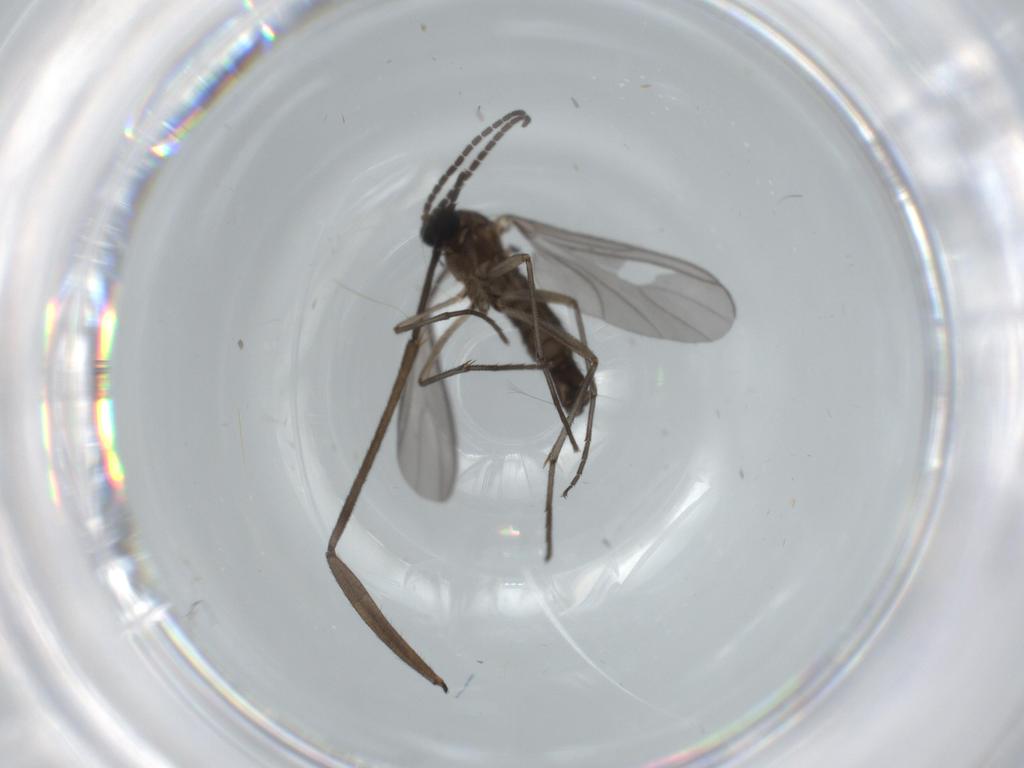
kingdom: Animalia
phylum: Arthropoda
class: Insecta
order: Diptera
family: Sciaridae
